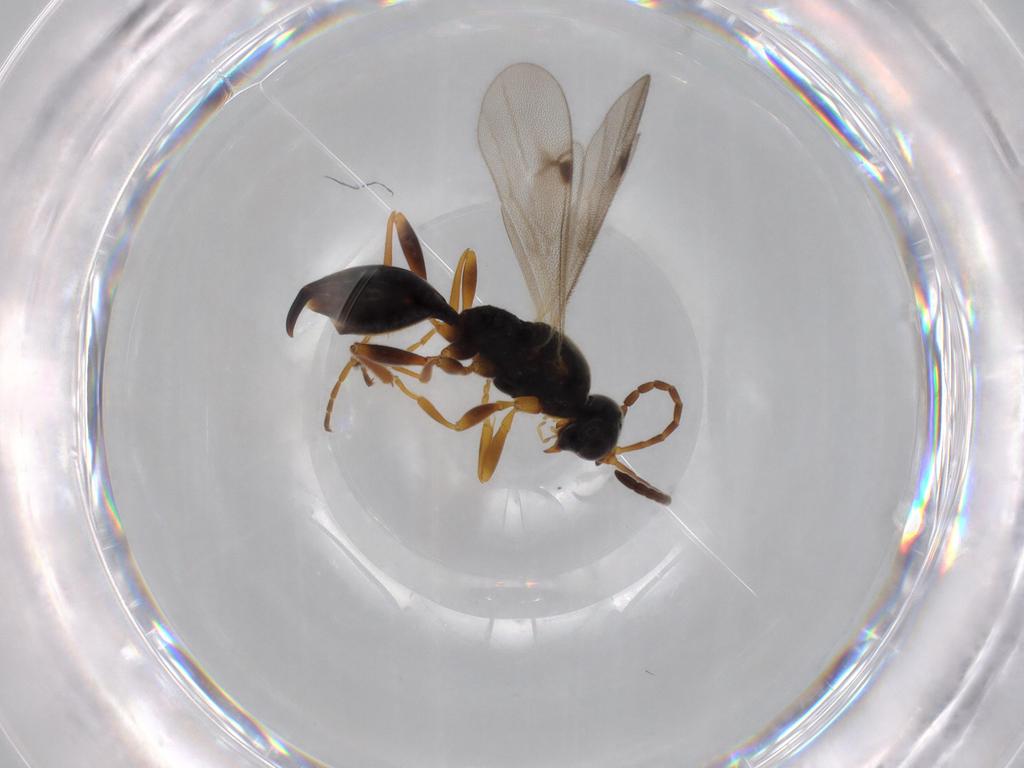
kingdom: Animalia
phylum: Arthropoda
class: Insecta
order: Hymenoptera
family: Proctotrupidae
